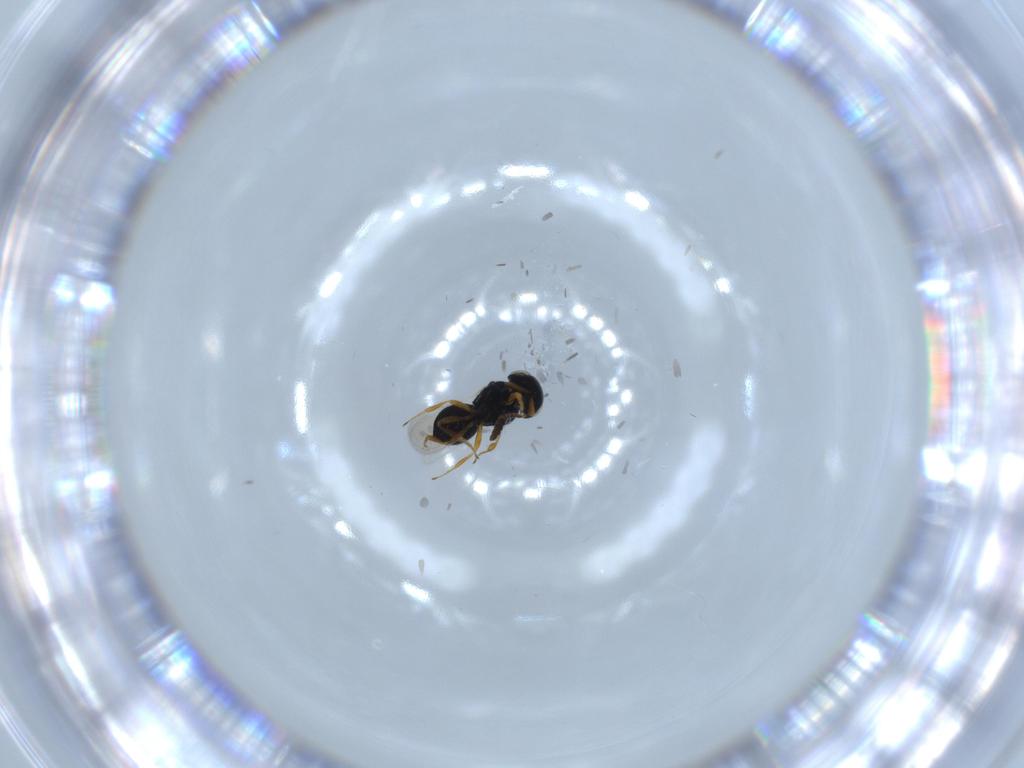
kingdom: Animalia
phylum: Arthropoda
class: Insecta
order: Hymenoptera
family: Scelionidae
